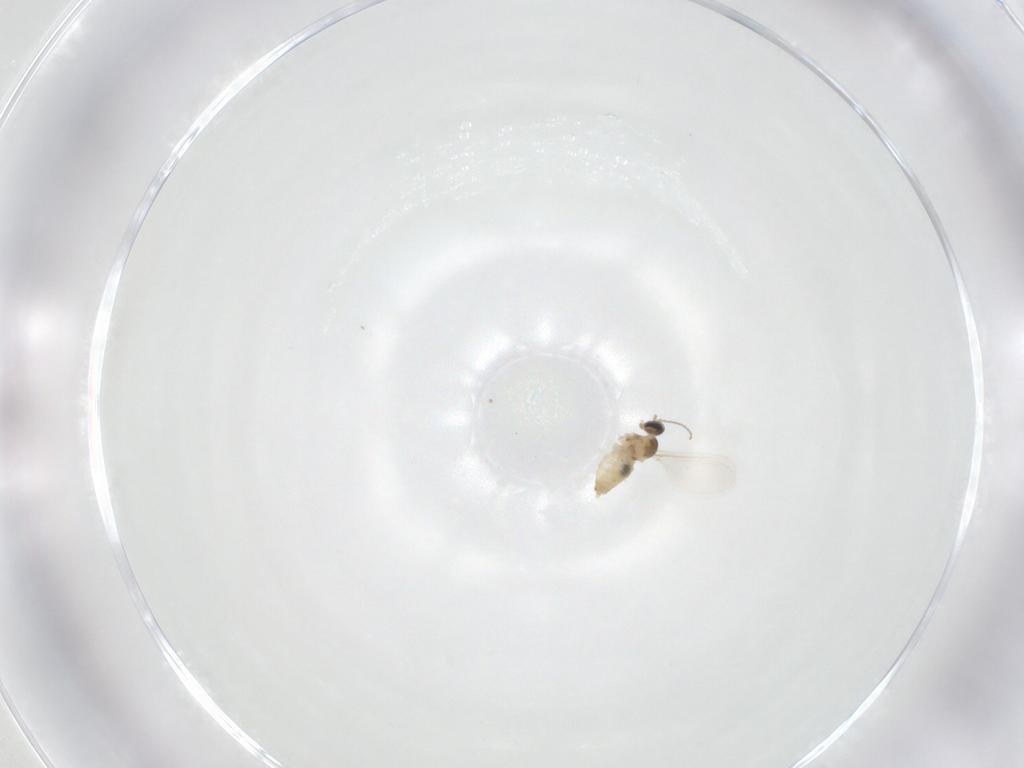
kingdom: Animalia
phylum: Arthropoda
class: Insecta
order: Diptera
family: Cecidomyiidae
